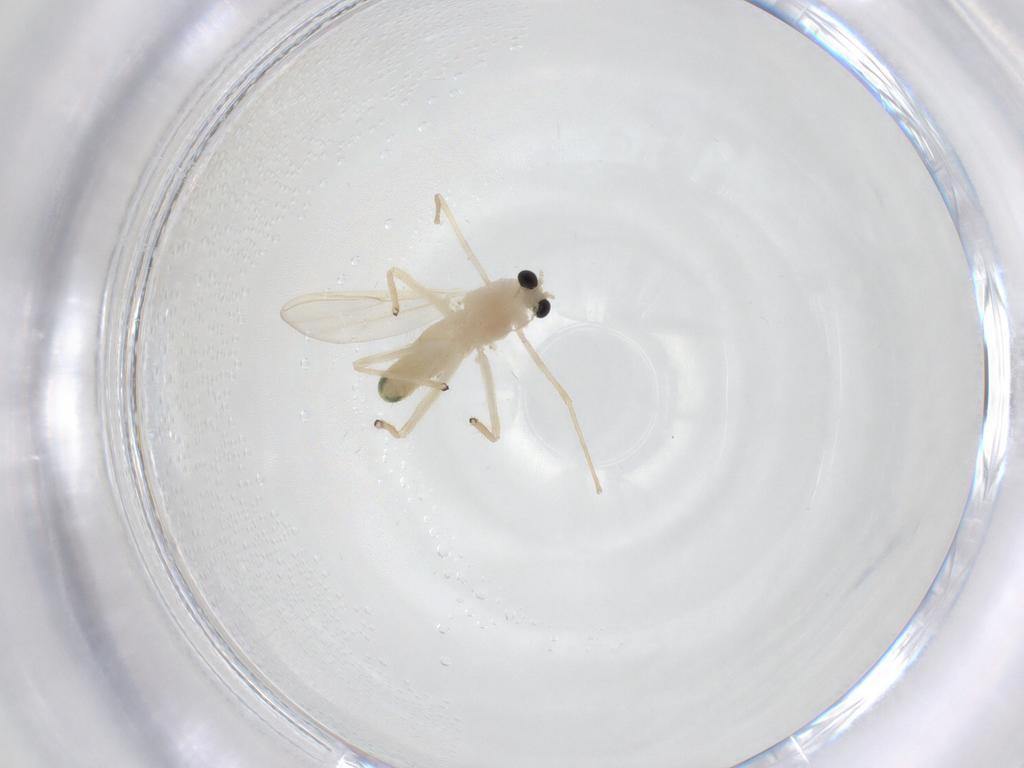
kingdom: Animalia
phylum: Arthropoda
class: Insecta
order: Diptera
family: Chironomidae
